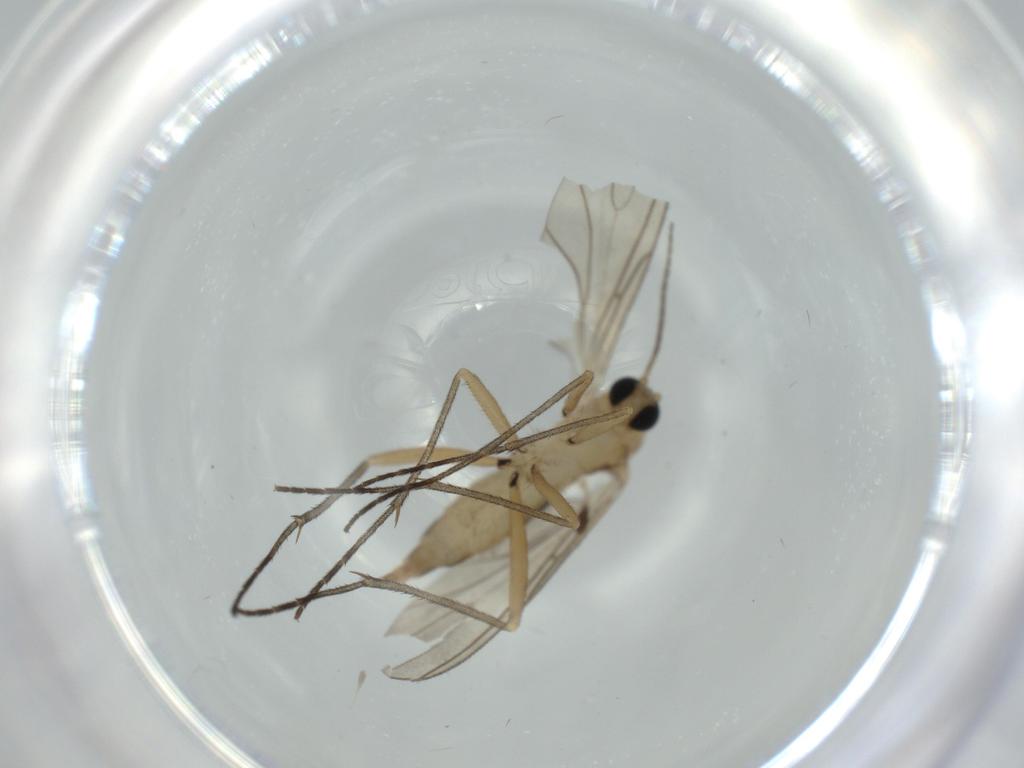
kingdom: Animalia
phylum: Arthropoda
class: Insecta
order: Diptera
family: Sciaridae
